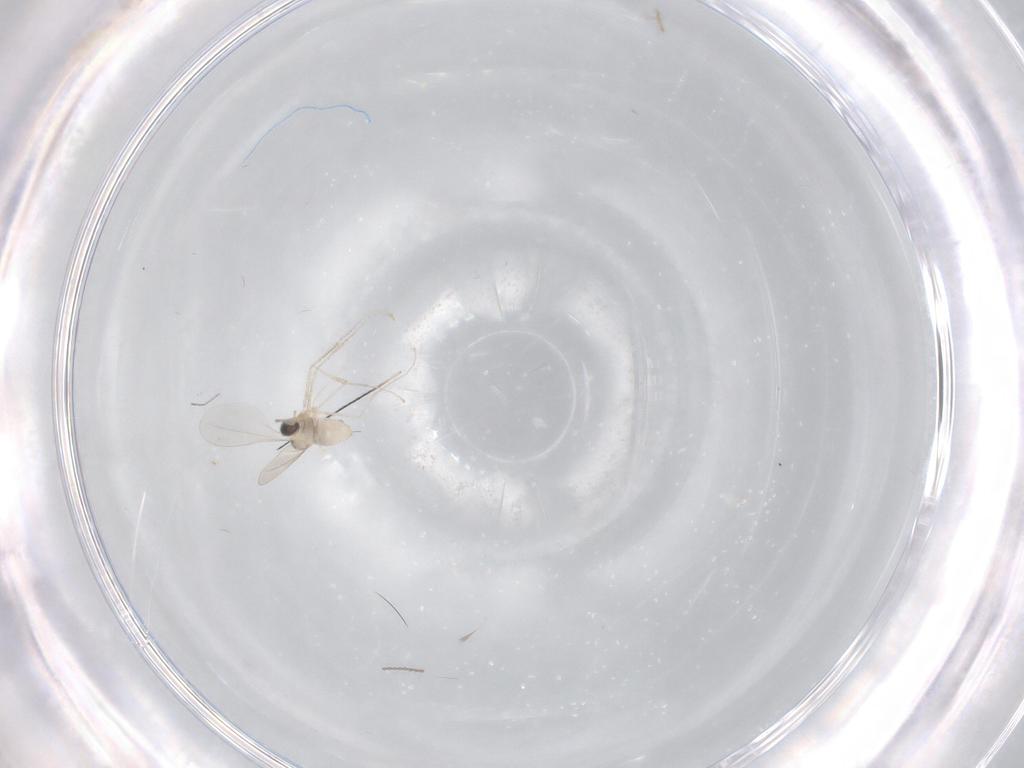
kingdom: Animalia
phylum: Arthropoda
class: Insecta
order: Diptera
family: Cecidomyiidae
